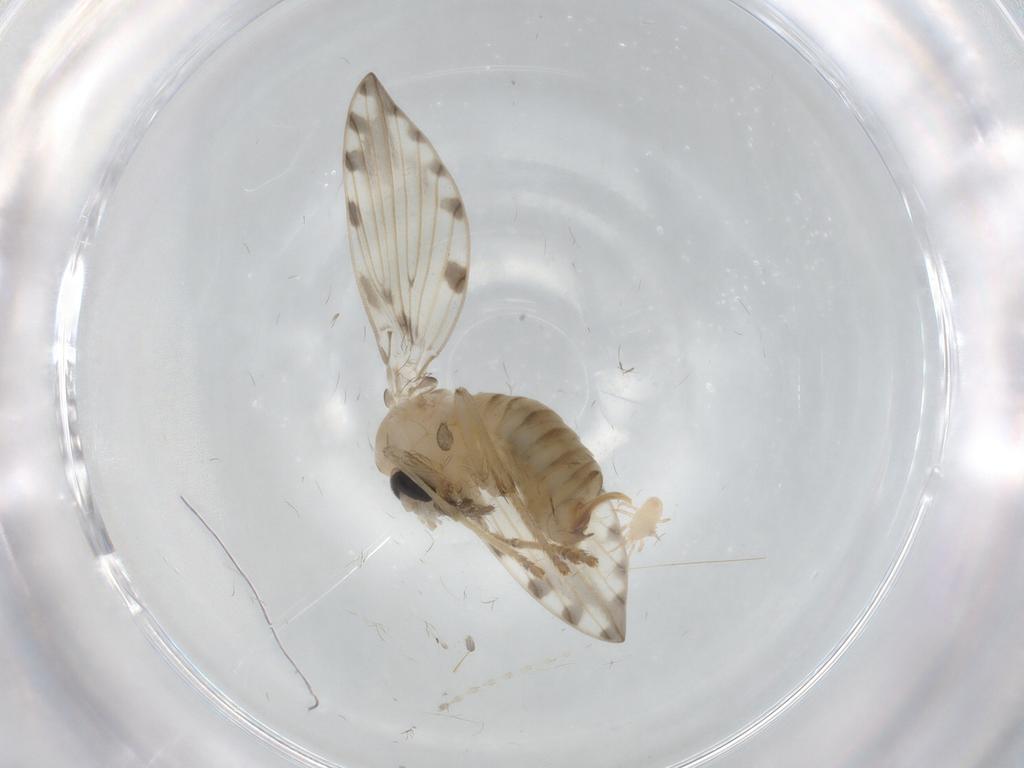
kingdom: Animalia
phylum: Arthropoda
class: Insecta
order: Diptera
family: Psychodidae
